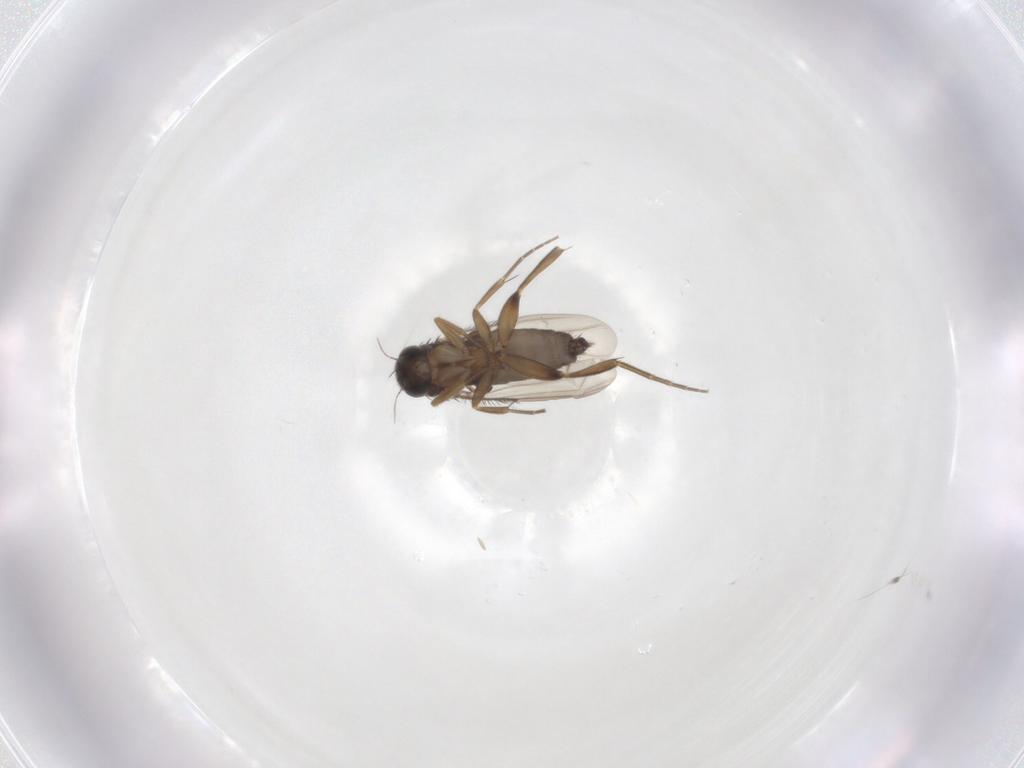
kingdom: Animalia
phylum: Arthropoda
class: Insecta
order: Diptera
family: Phoridae
